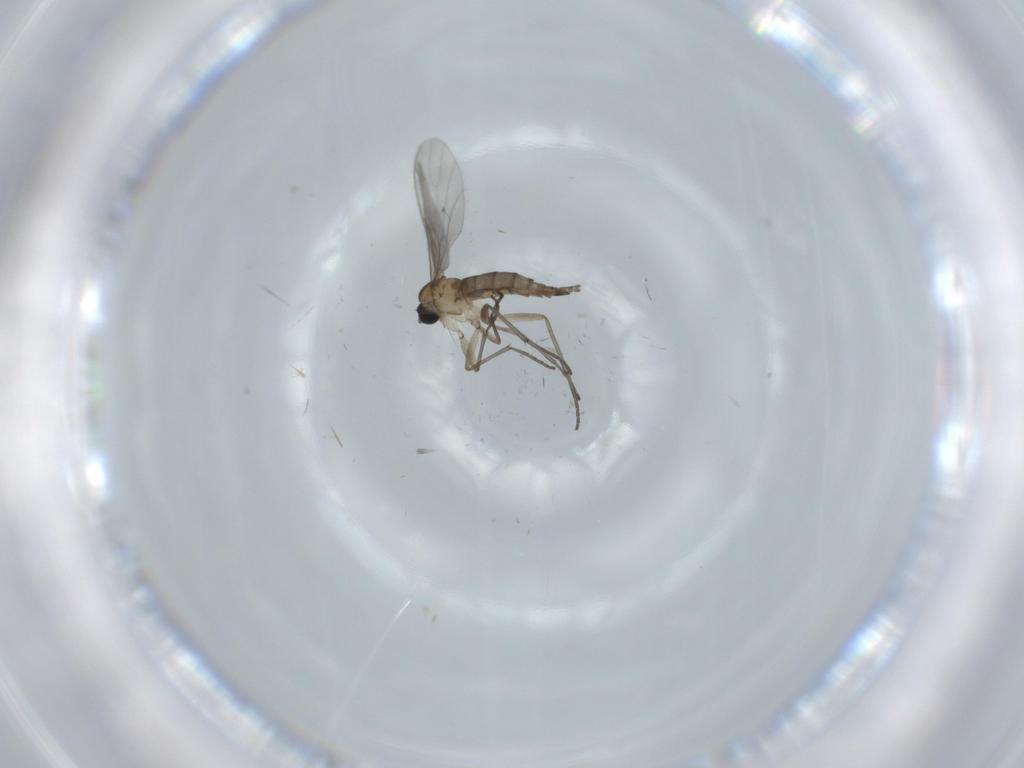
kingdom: Animalia
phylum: Arthropoda
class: Insecta
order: Diptera
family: Cecidomyiidae
